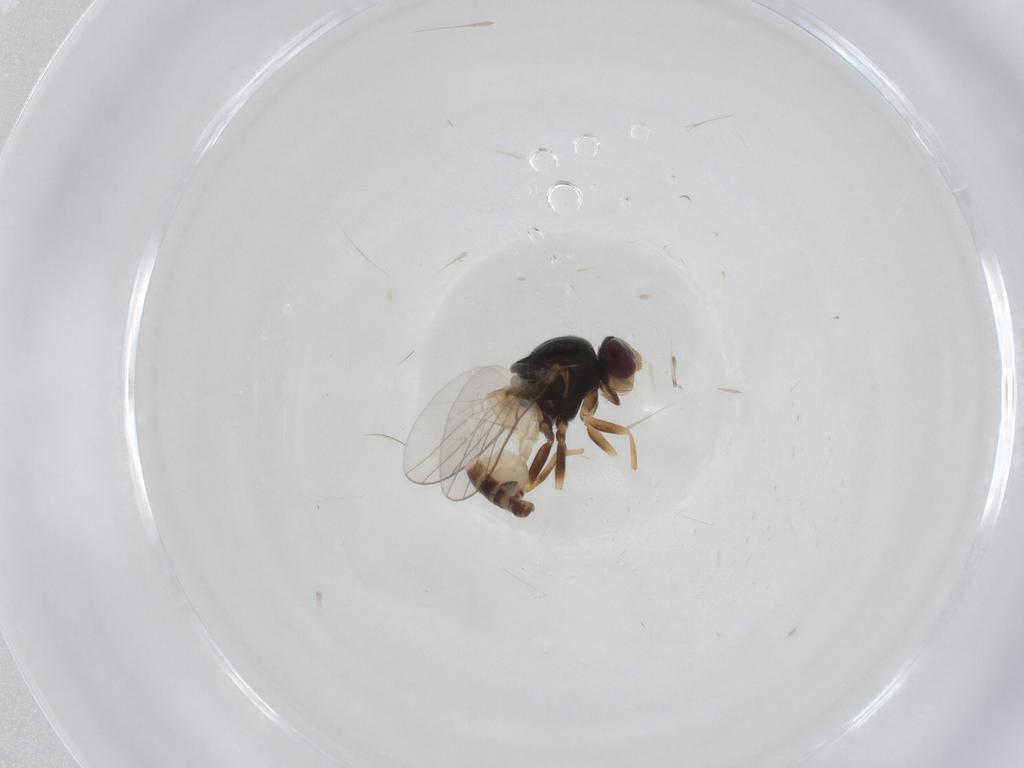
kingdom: Animalia
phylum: Arthropoda
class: Insecta
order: Diptera
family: Chloropidae
